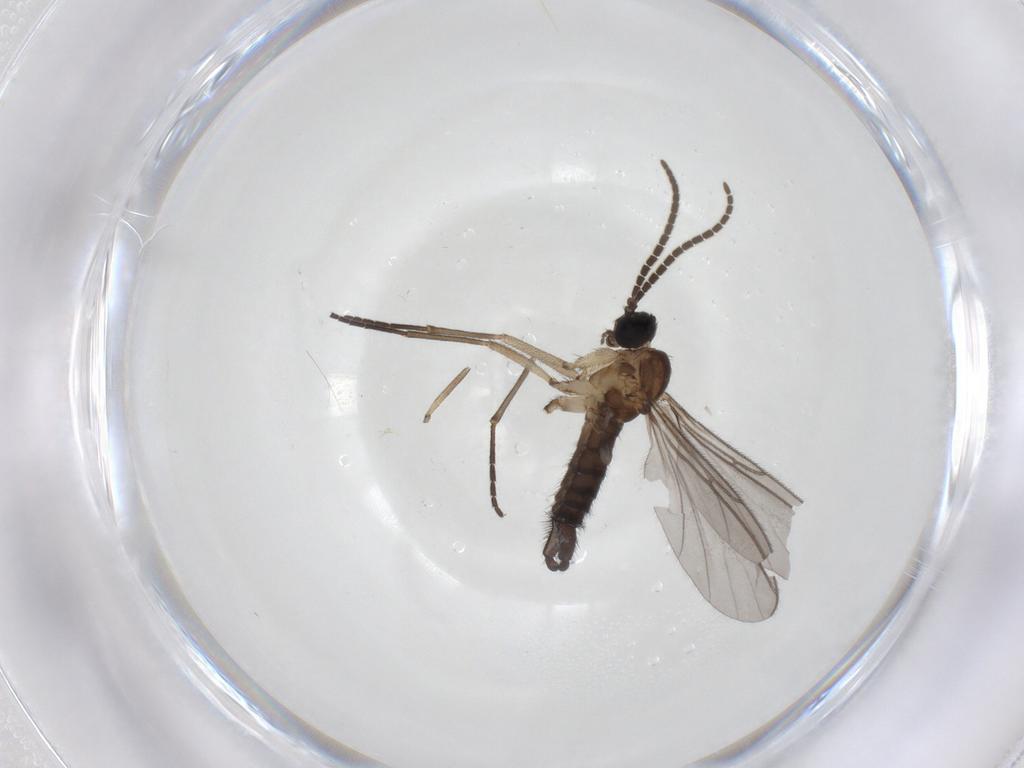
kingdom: Animalia
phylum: Arthropoda
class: Insecta
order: Diptera
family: Sciaridae
